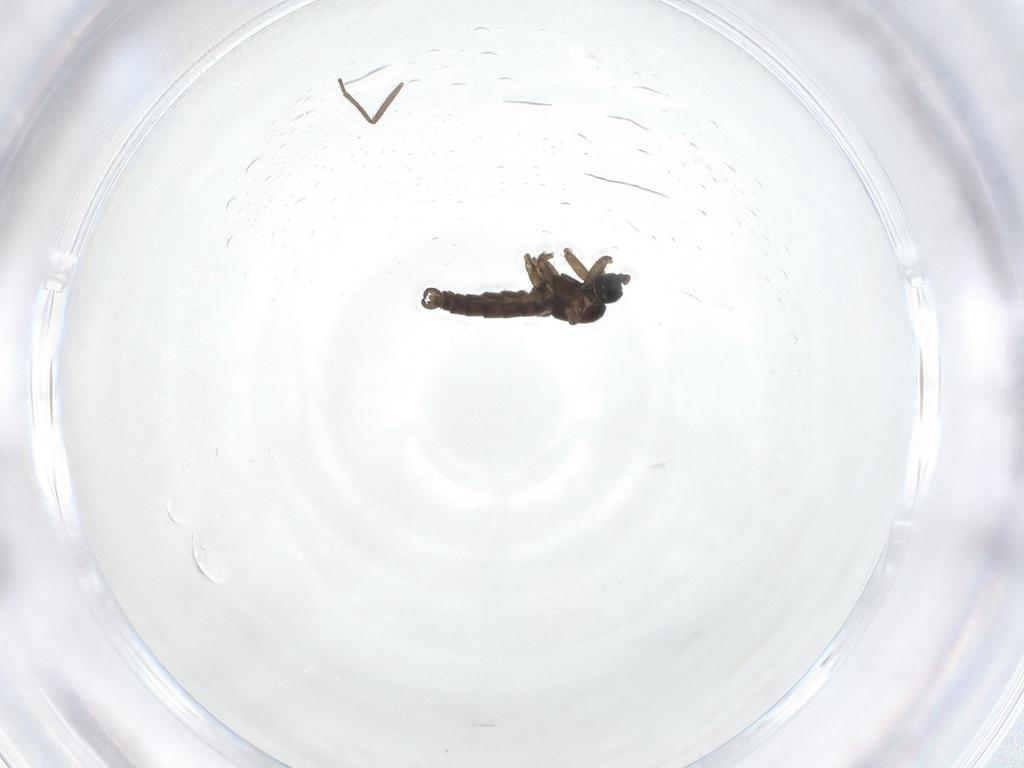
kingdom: Animalia
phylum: Arthropoda
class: Insecta
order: Diptera
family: Sciaridae
